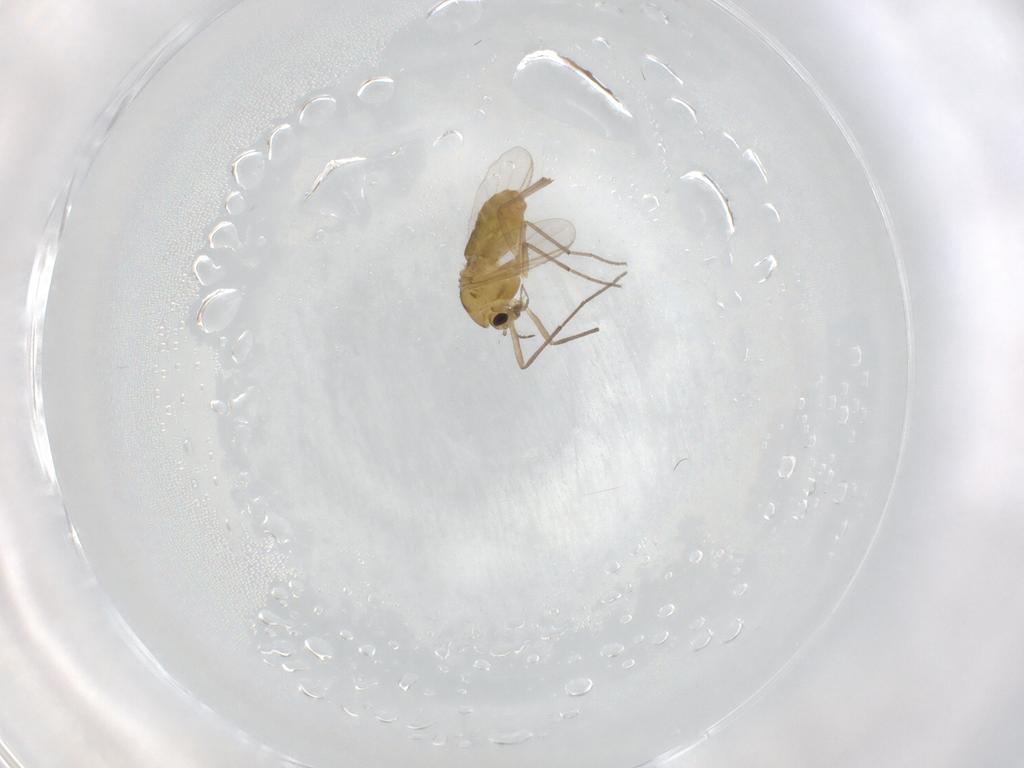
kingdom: Animalia
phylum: Arthropoda
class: Insecta
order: Diptera
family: Chironomidae
